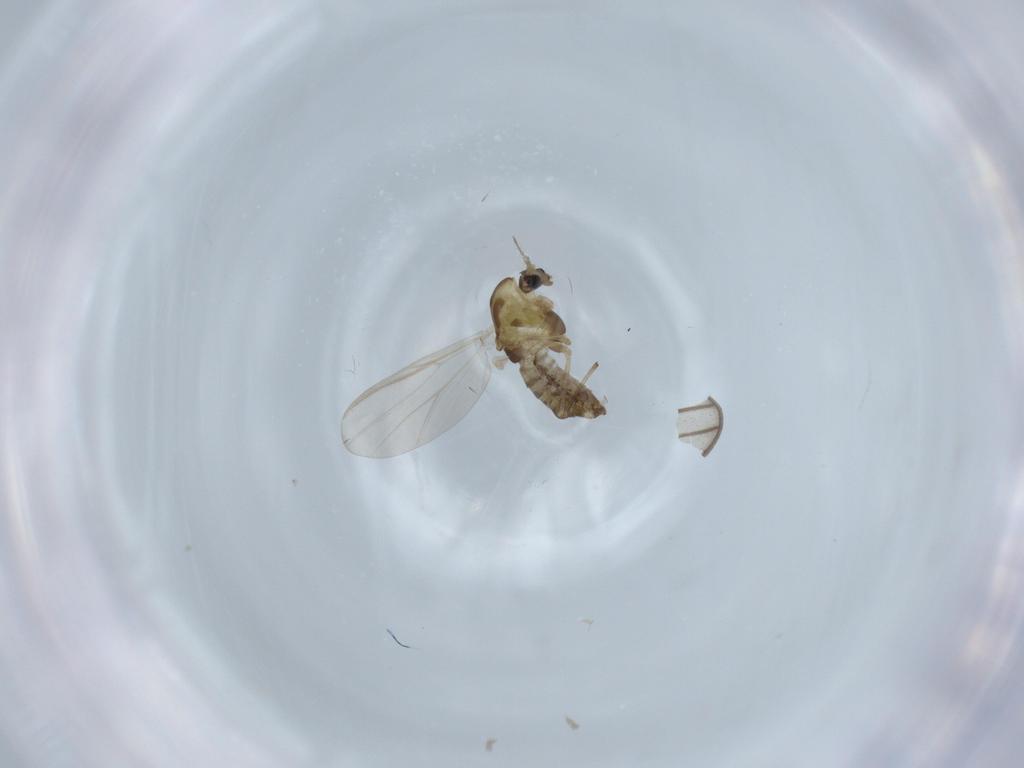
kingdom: Animalia
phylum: Arthropoda
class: Insecta
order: Diptera
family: Chironomidae
